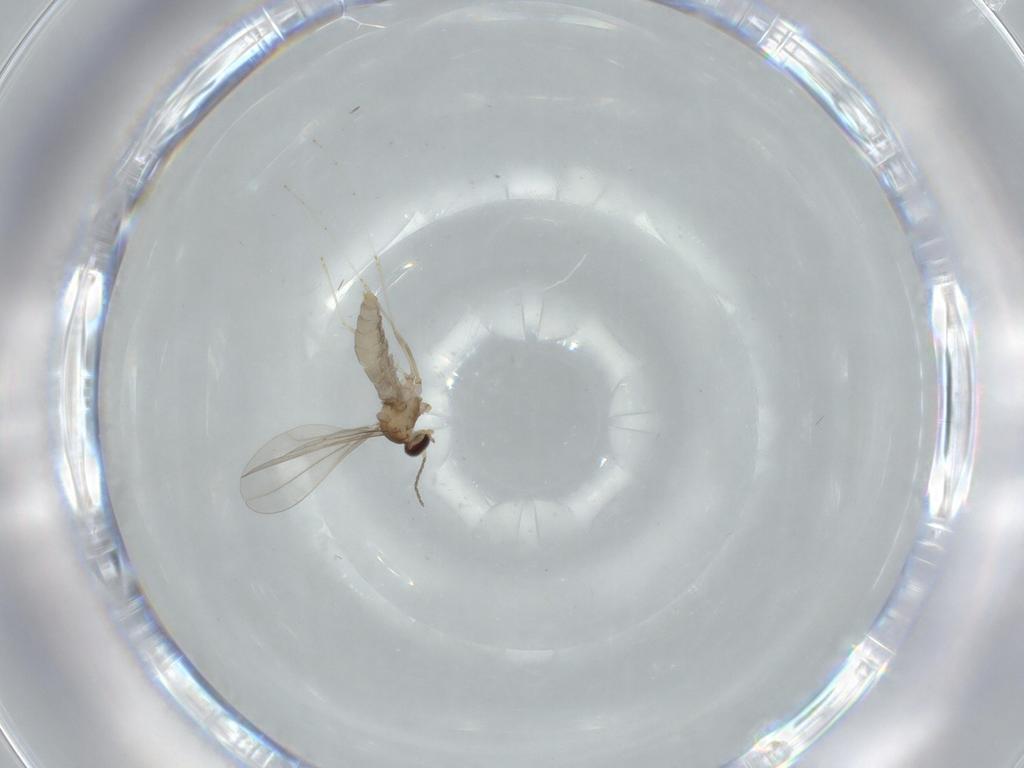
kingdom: Animalia
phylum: Arthropoda
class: Insecta
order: Diptera
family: Cecidomyiidae
